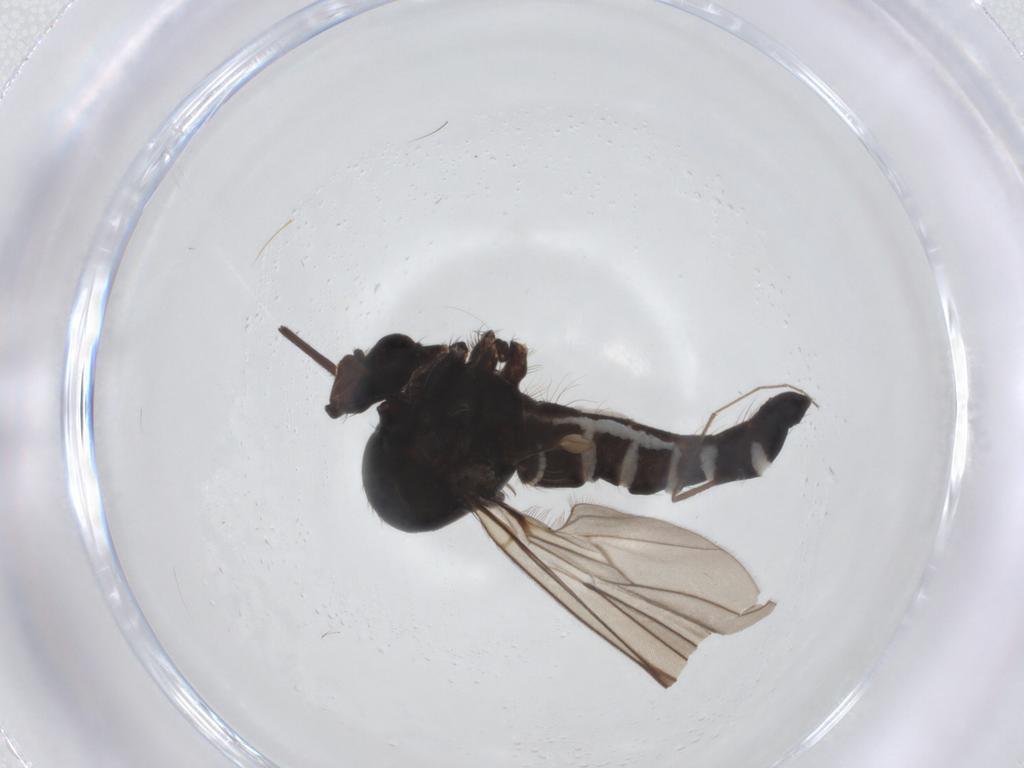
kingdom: Animalia
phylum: Arthropoda
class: Insecta
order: Diptera
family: Hybotidae
